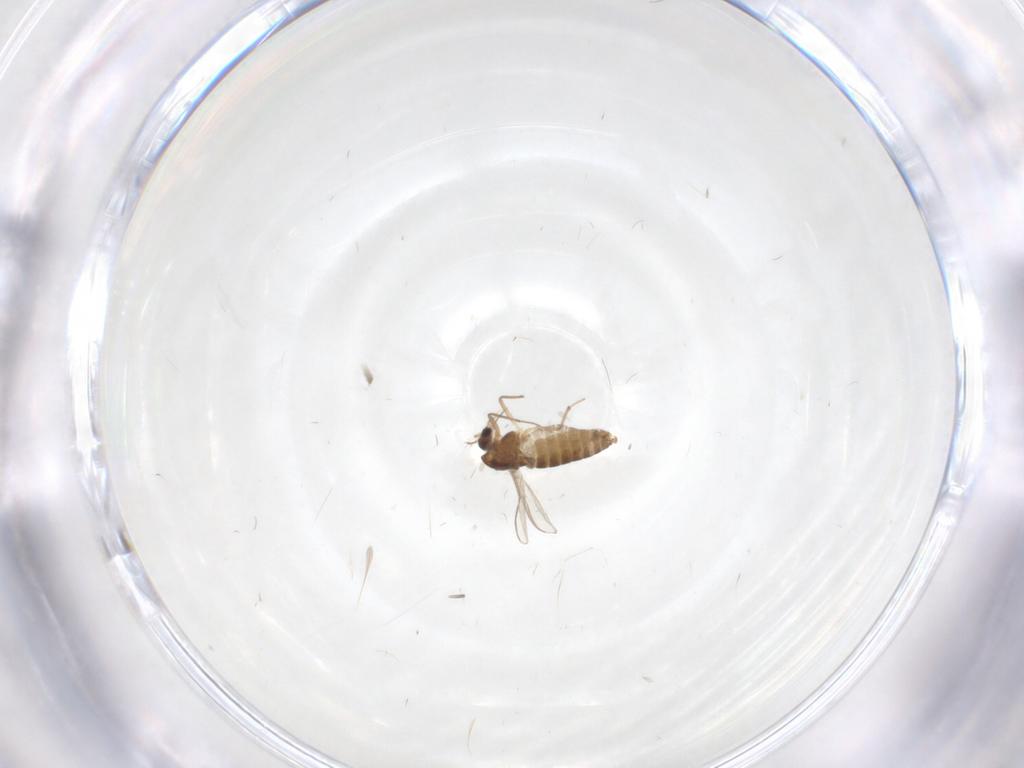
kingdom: Animalia
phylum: Arthropoda
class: Insecta
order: Diptera
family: Chironomidae
